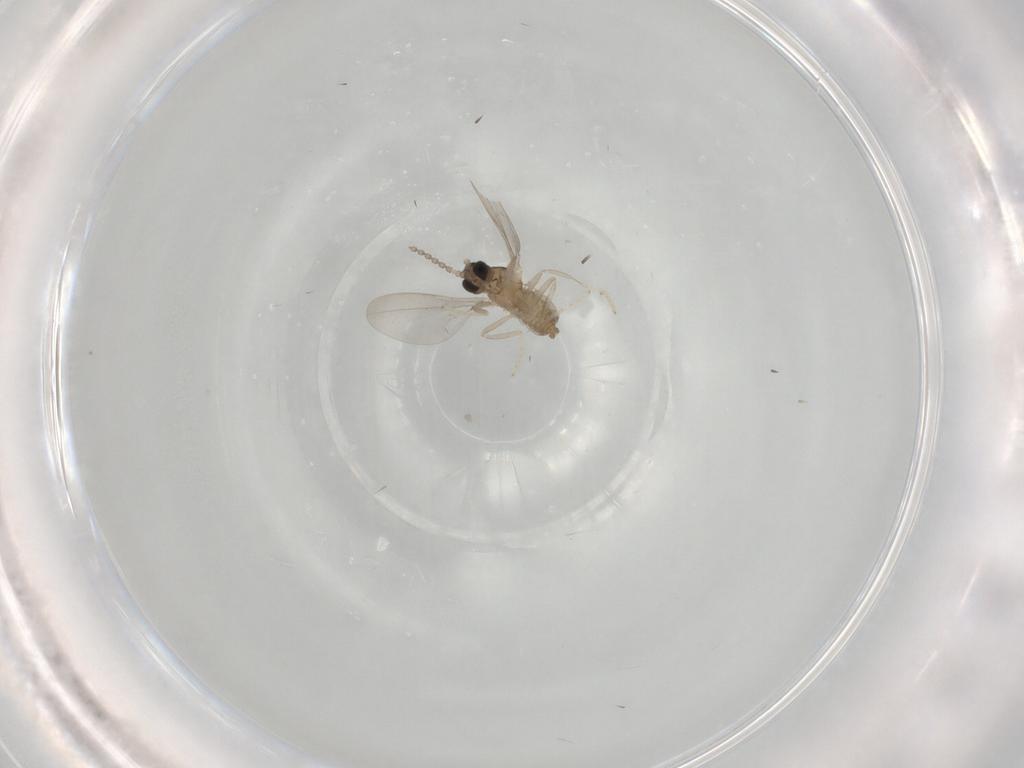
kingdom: Animalia
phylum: Arthropoda
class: Insecta
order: Diptera
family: Cecidomyiidae
